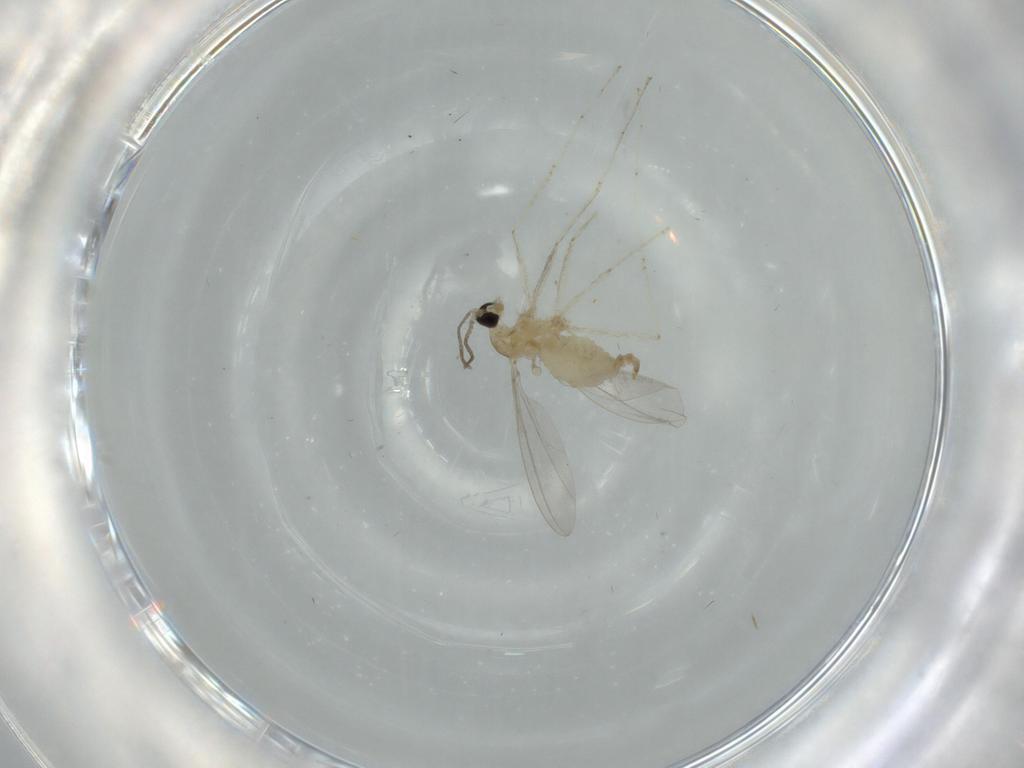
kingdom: Animalia
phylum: Arthropoda
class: Insecta
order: Diptera
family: Cecidomyiidae
